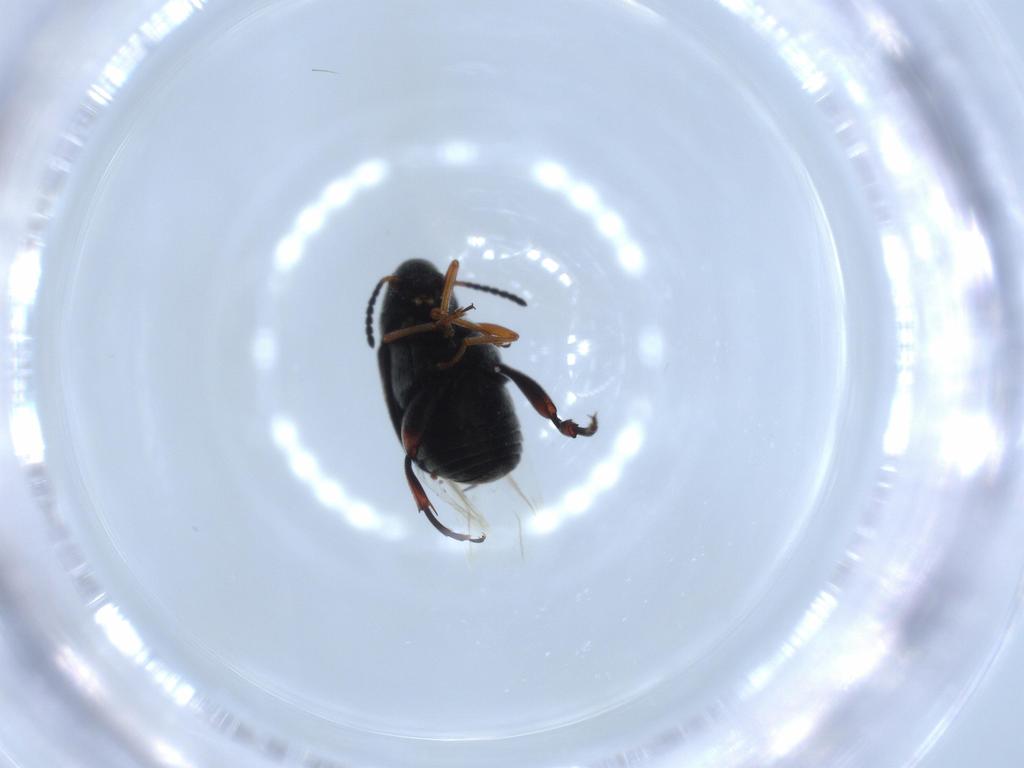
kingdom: Animalia
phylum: Arthropoda
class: Insecta
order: Coleoptera
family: Chrysomelidae
